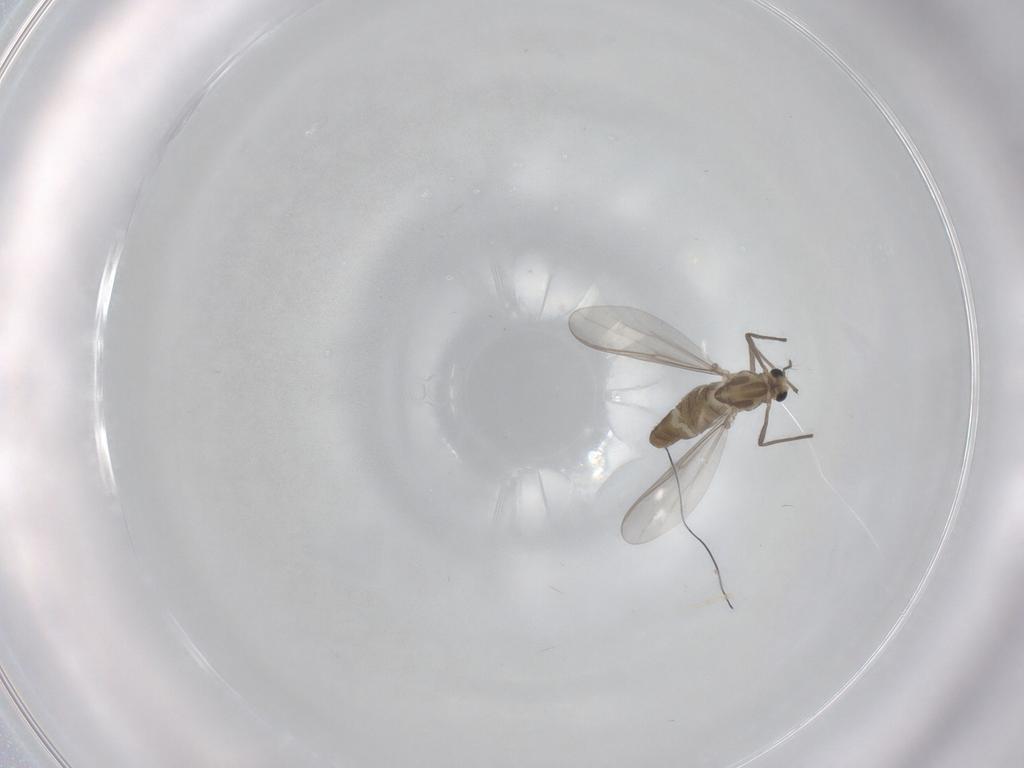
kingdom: Animalia
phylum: Arthropoda
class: Insecta
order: Diptera
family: Chironomidae
